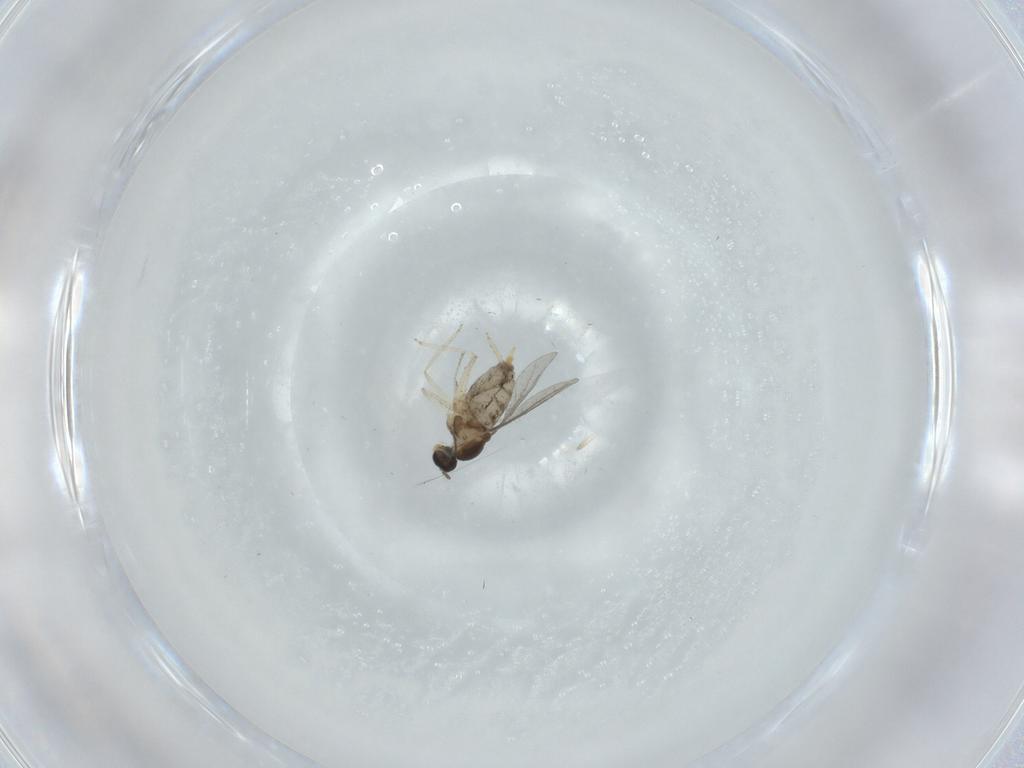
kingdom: Animalia
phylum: Arthropoda
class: Insecta
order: Diptera
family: Cecidomyiidae
